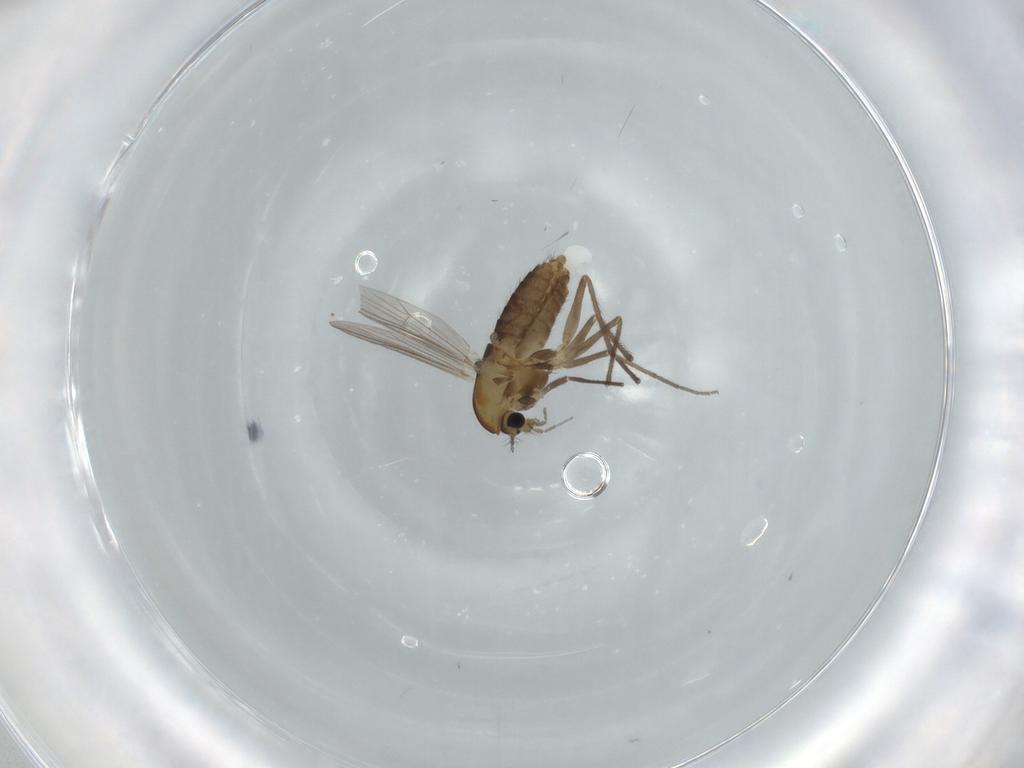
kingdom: Animalia
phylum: Arthropoda
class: Insecta
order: Diptera
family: Chironomidae
